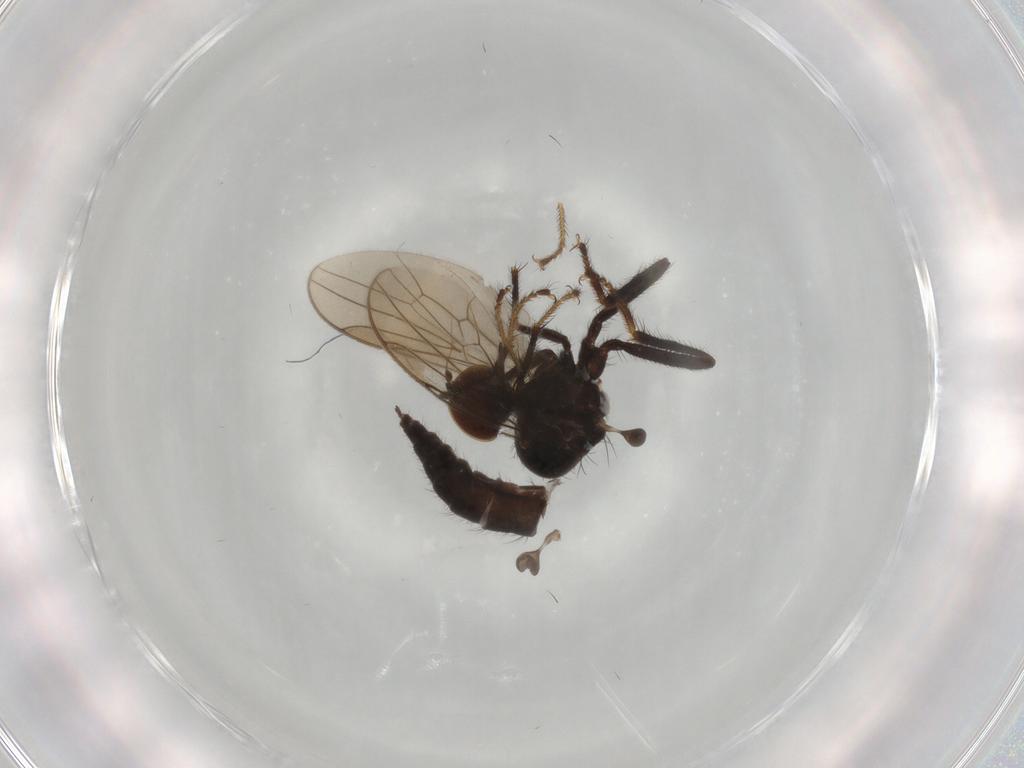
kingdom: Animalia
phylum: Arthropoda
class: Insecta
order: Diptera
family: Hybotidae
